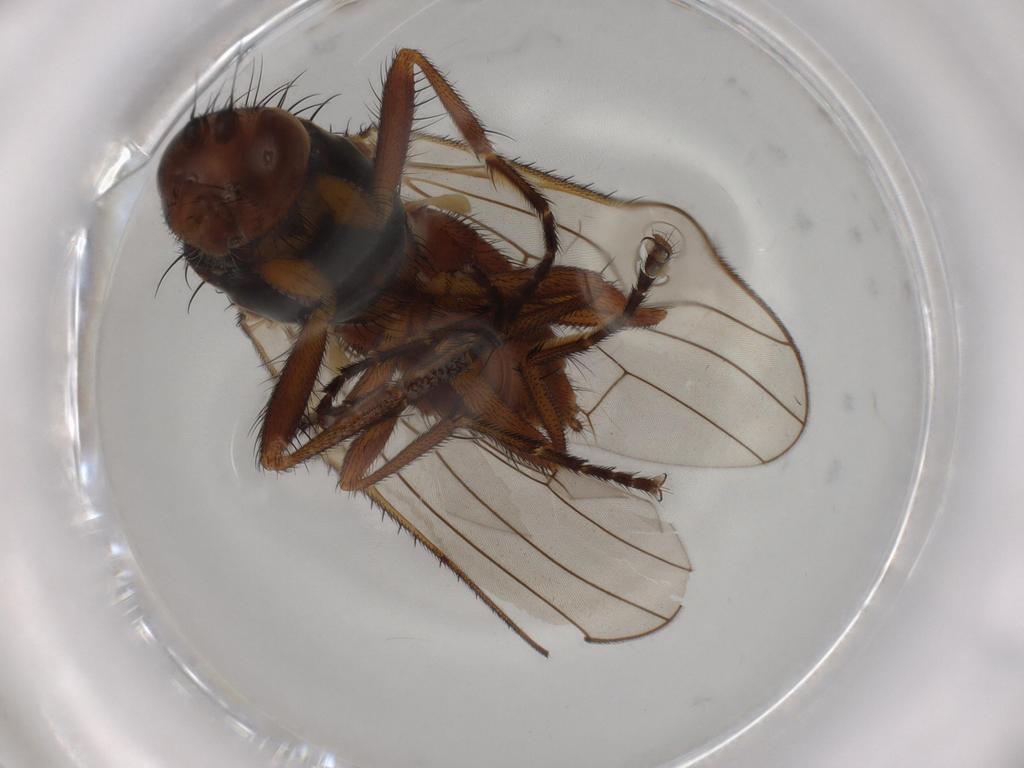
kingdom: Animalia
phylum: Arthropoda
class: Insecta
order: Diptera
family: Heleomyzidae
